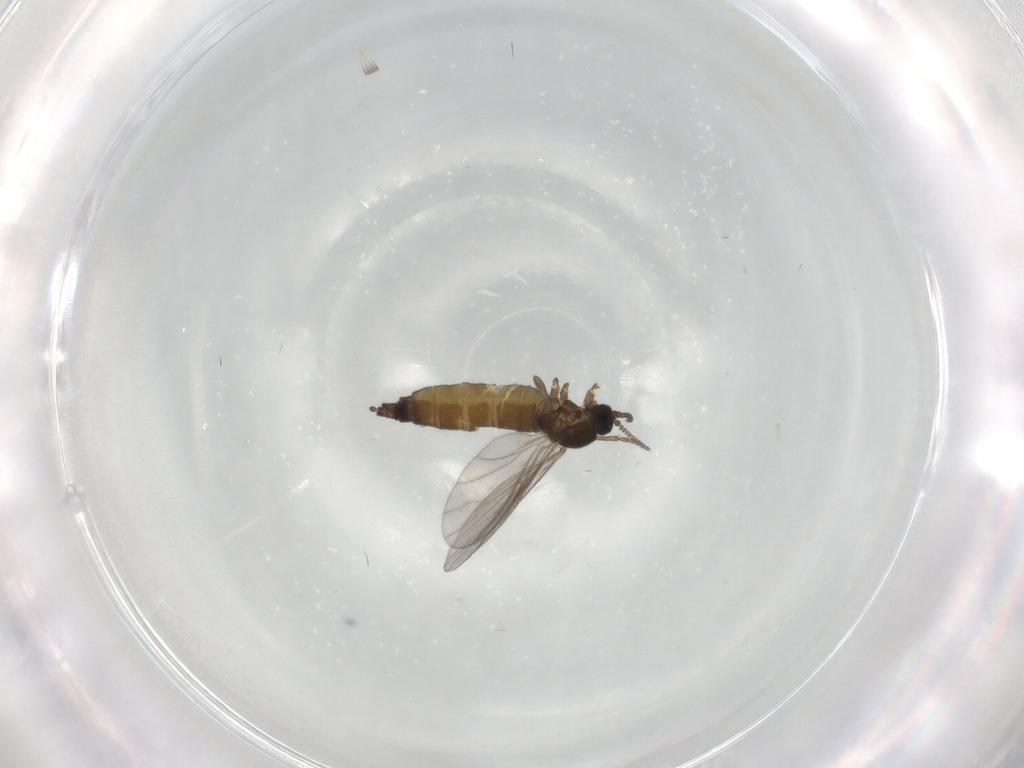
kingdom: Animalia
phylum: Arthropoda
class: Insecta
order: Diptera
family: Sciaridae
